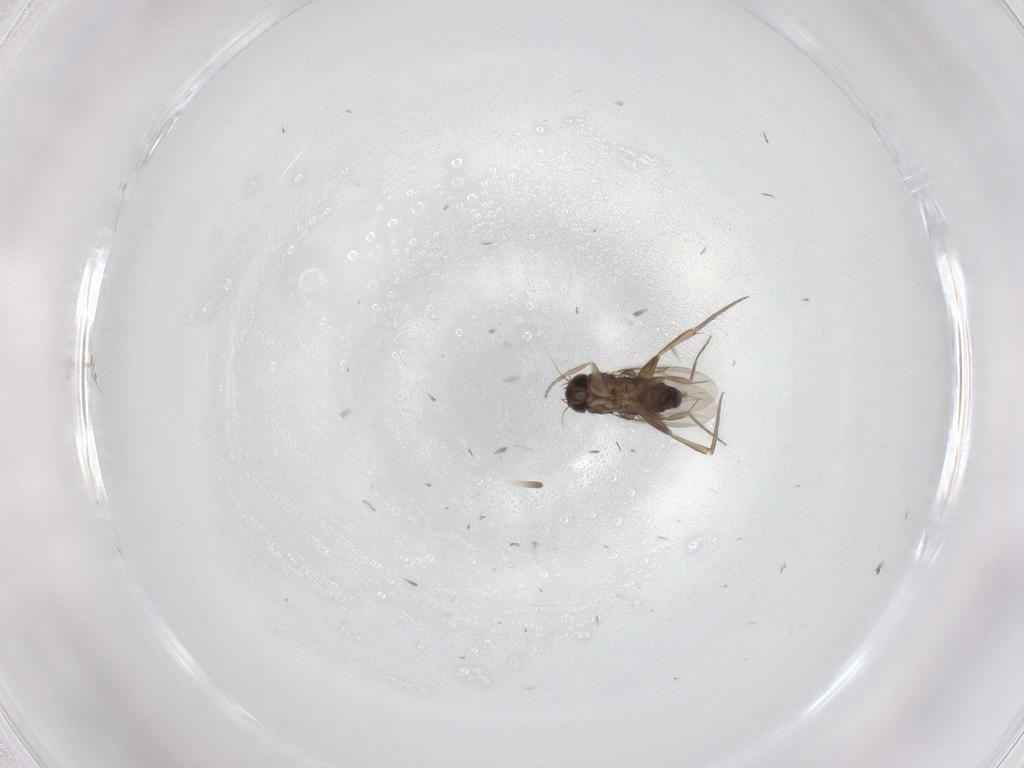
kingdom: Animalia
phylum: Arthropoda
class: Insecta
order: Diptera
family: Phoridae
